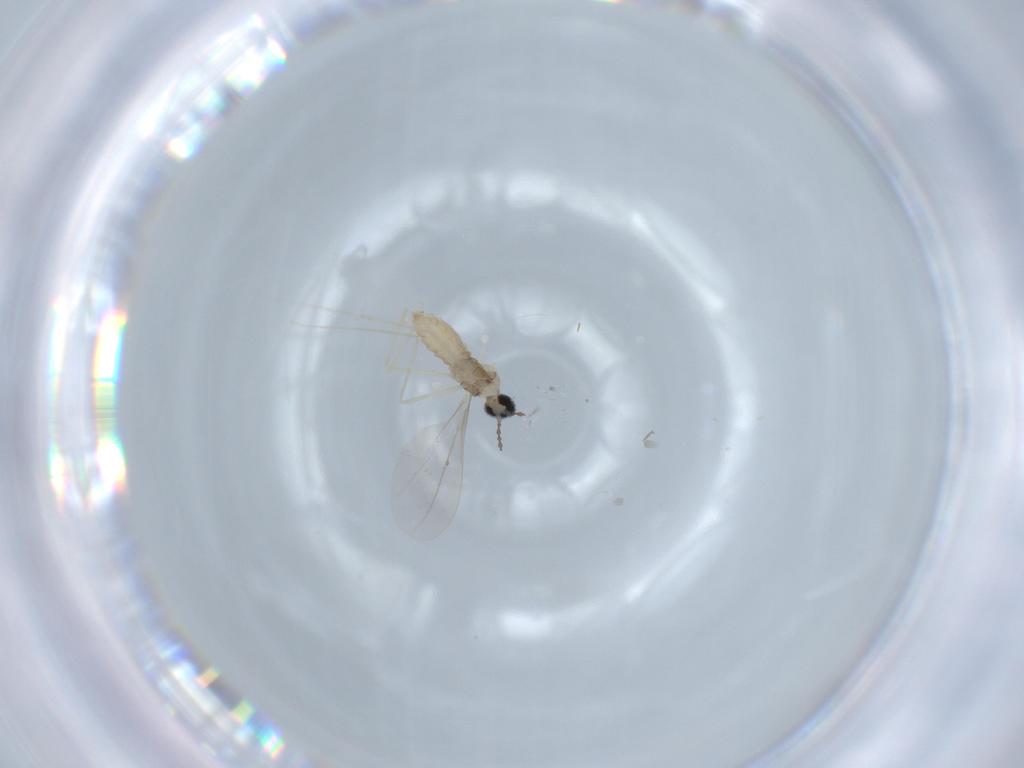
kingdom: Animalia
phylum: Arthropoda
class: Insecta
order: Diptera
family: Cecidomyiidae
